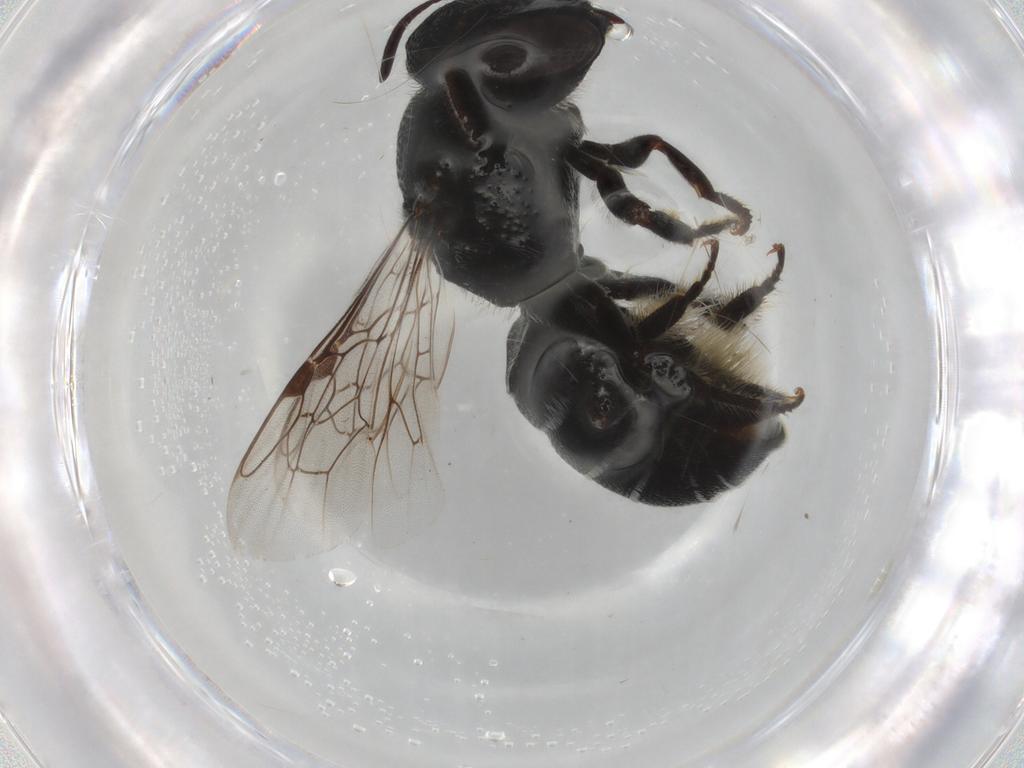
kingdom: Animalia
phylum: Arthropoda
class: Insecta
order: Hymenoptera
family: Megachilidae
